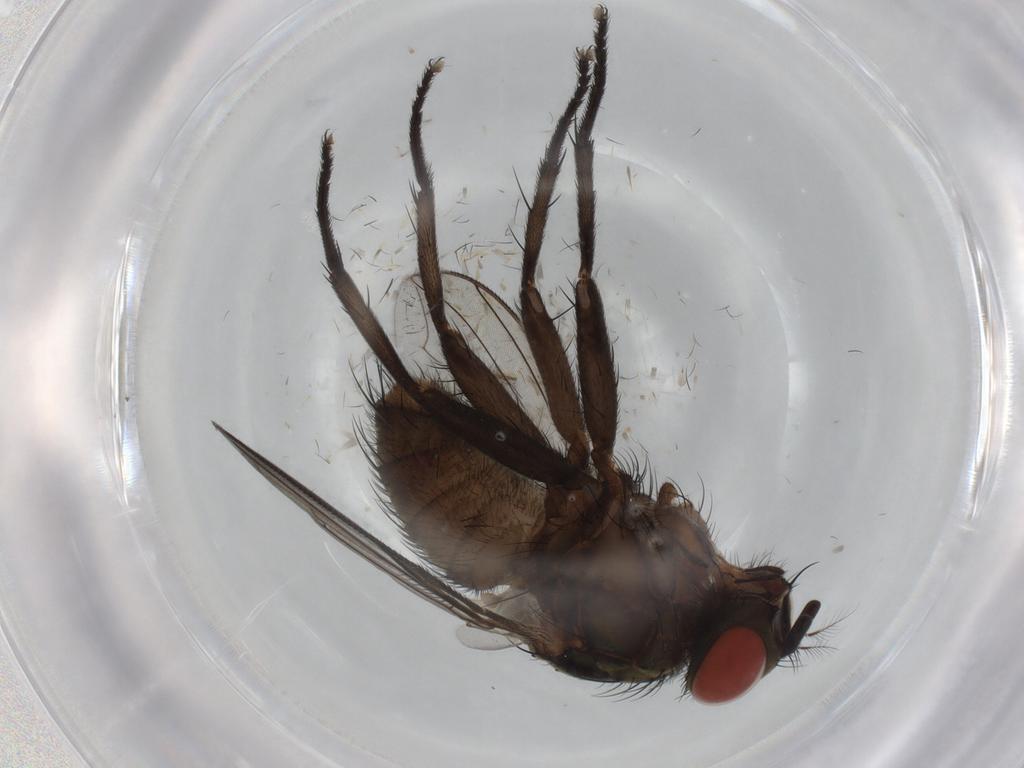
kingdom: Animalia
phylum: Arthropoda
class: Insecta
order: Diptera
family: Sarcophagidae
